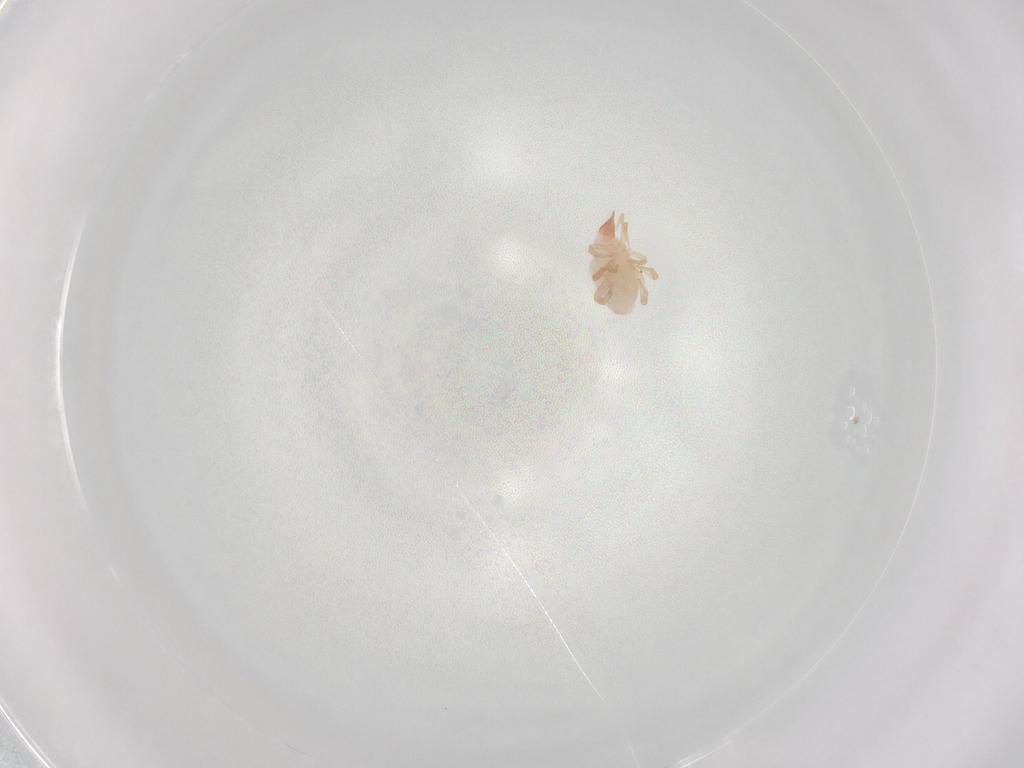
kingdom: Animalia
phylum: Arthropoda
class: Arachnida
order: Trombidiformes
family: Bdellidae
